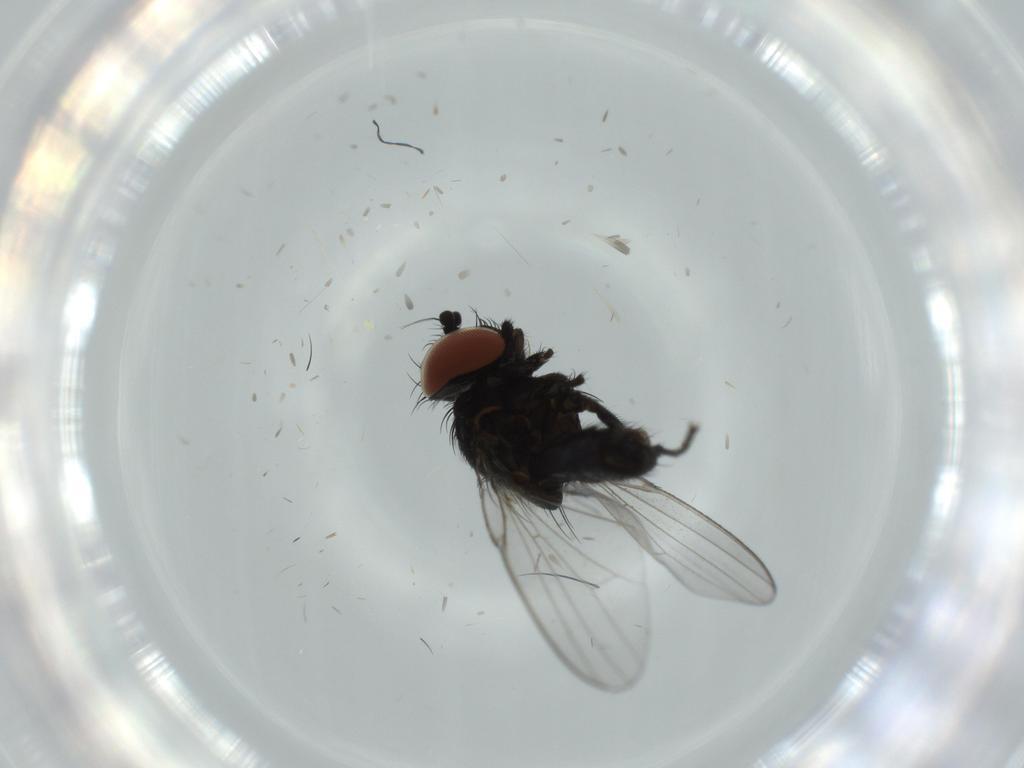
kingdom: Animalia
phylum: Arthropoda
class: Insecta
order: Diptera
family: Milichiidae
